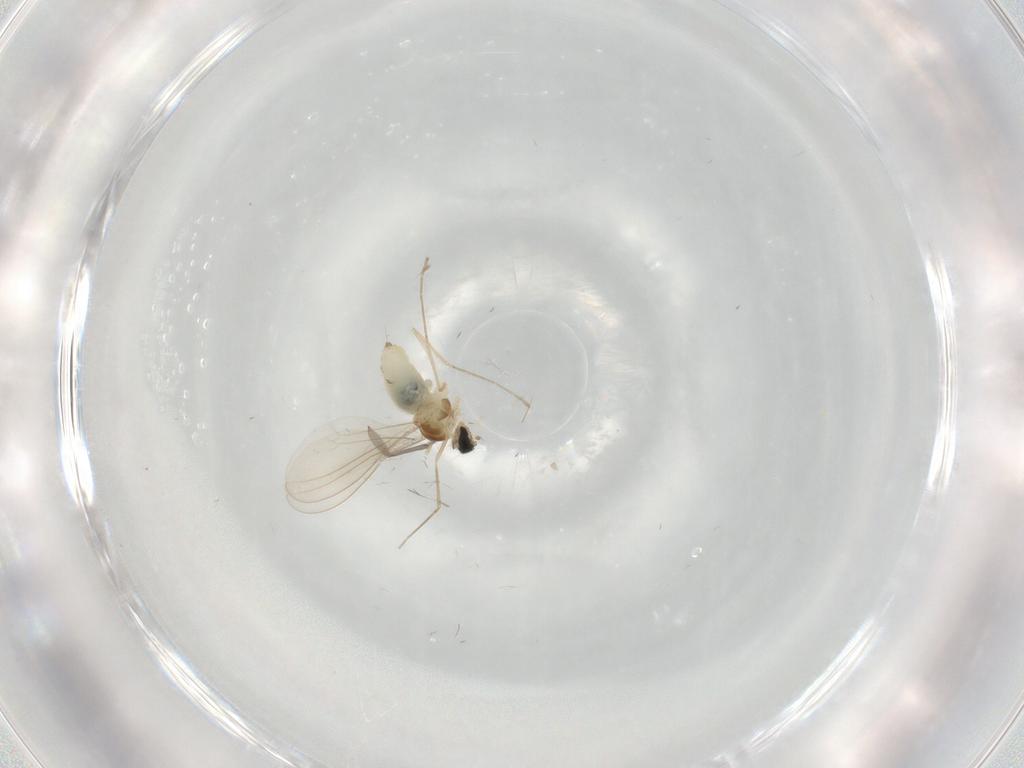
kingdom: Animalia
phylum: Arthropoda
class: Insecta
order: Diptera
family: Sciaridae
